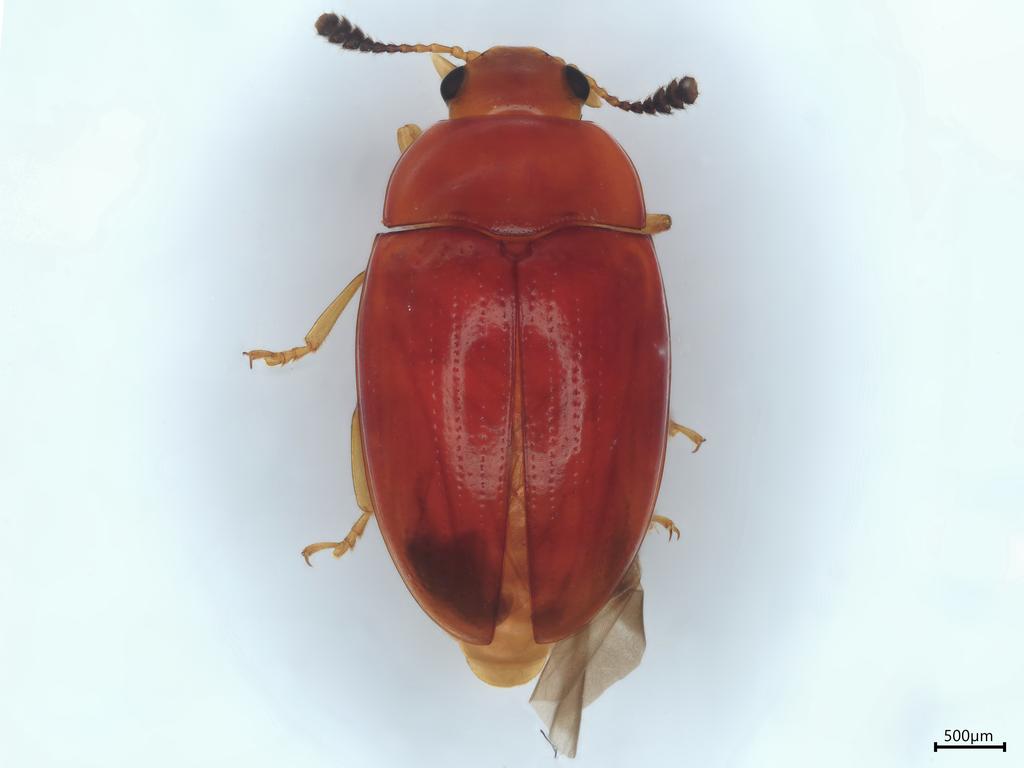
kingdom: Animalia
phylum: Arthropoda
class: Insecta
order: Coleoptera
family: Erotylidae
